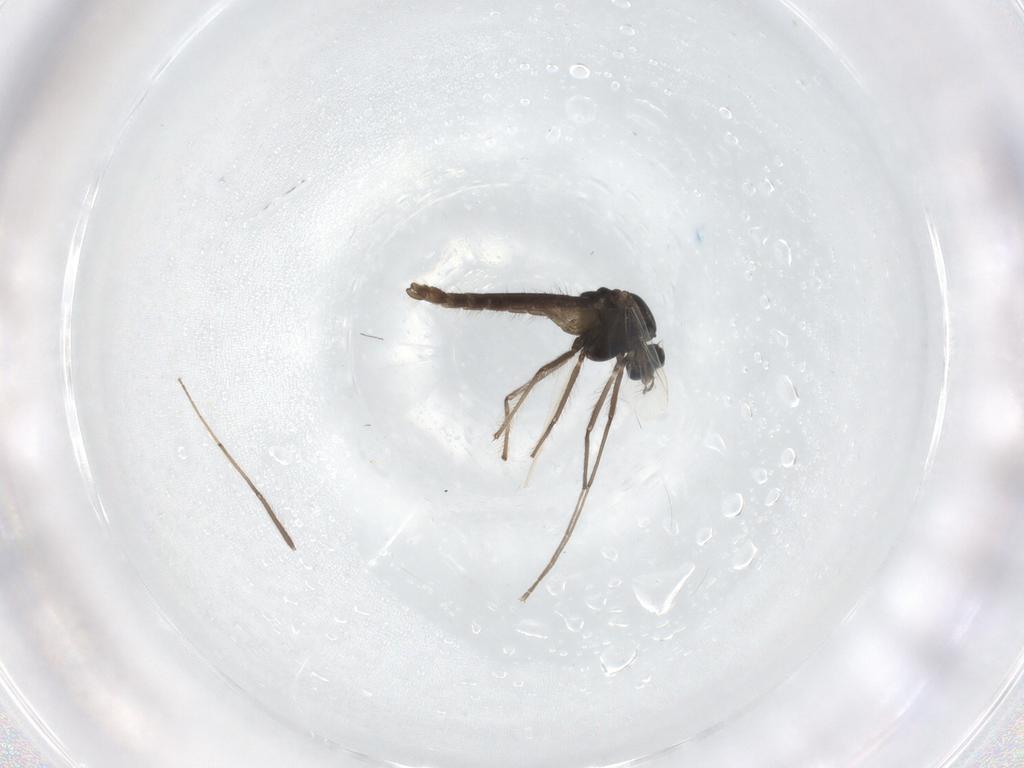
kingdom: Animalia
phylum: Arthropoda
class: Insecta
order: Diptera
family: Chironomidae
